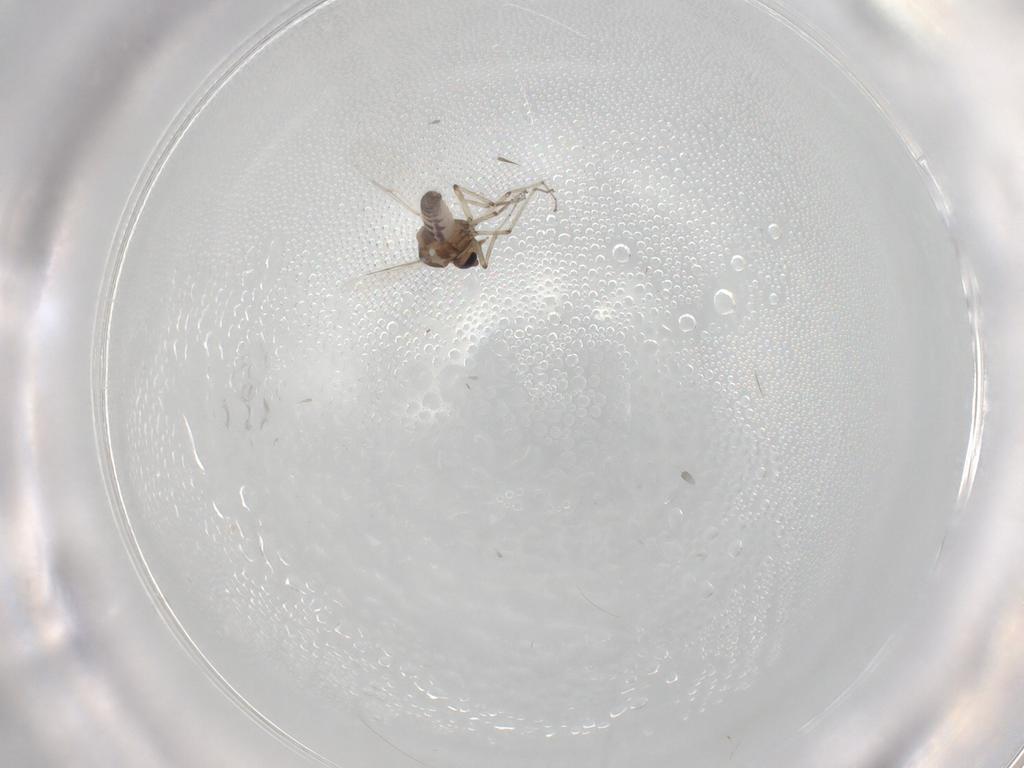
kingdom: Animalia
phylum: Arthropoda
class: Insecta
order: Diptera
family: Ceratopogonidae
